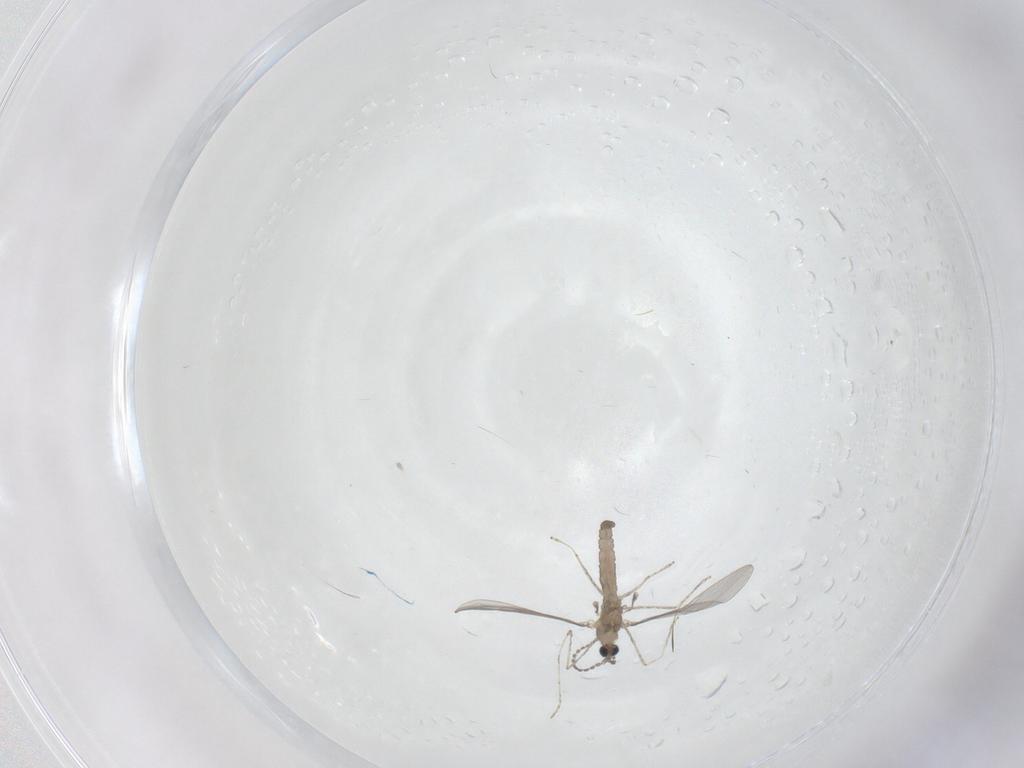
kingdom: Animalia
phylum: Arthropoda
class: Insecta
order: Diptera
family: Cecidomyiidae
